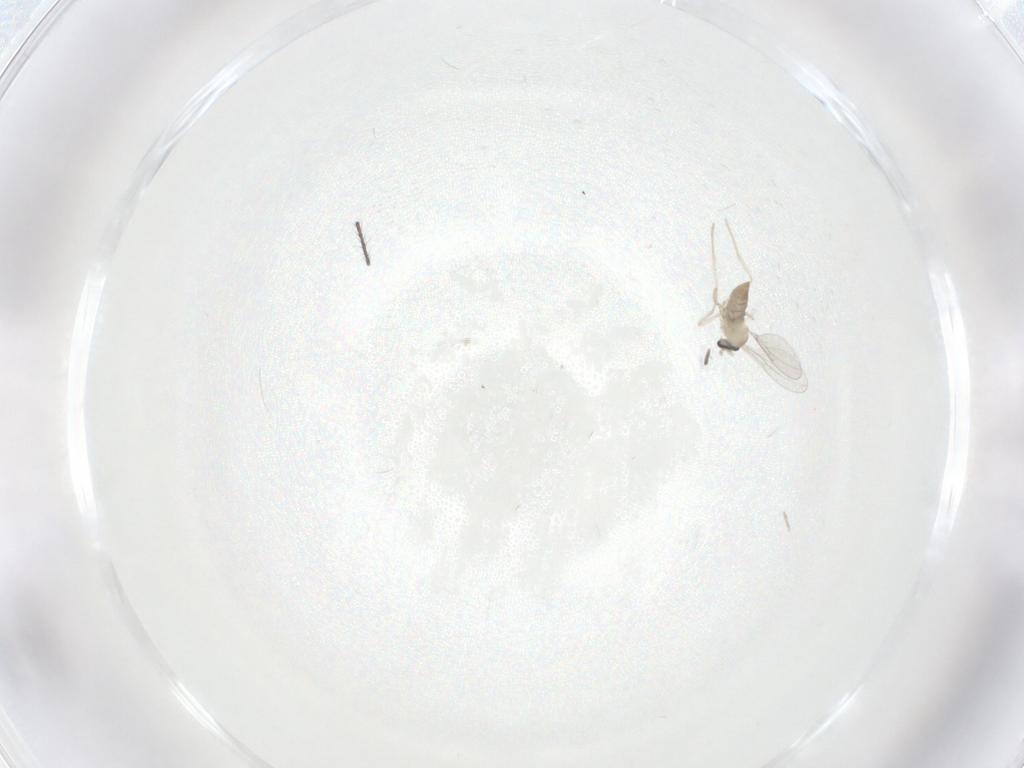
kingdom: Animalia
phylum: Arthropoda
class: Insecta
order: Diptera
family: Cecidomyiidae
